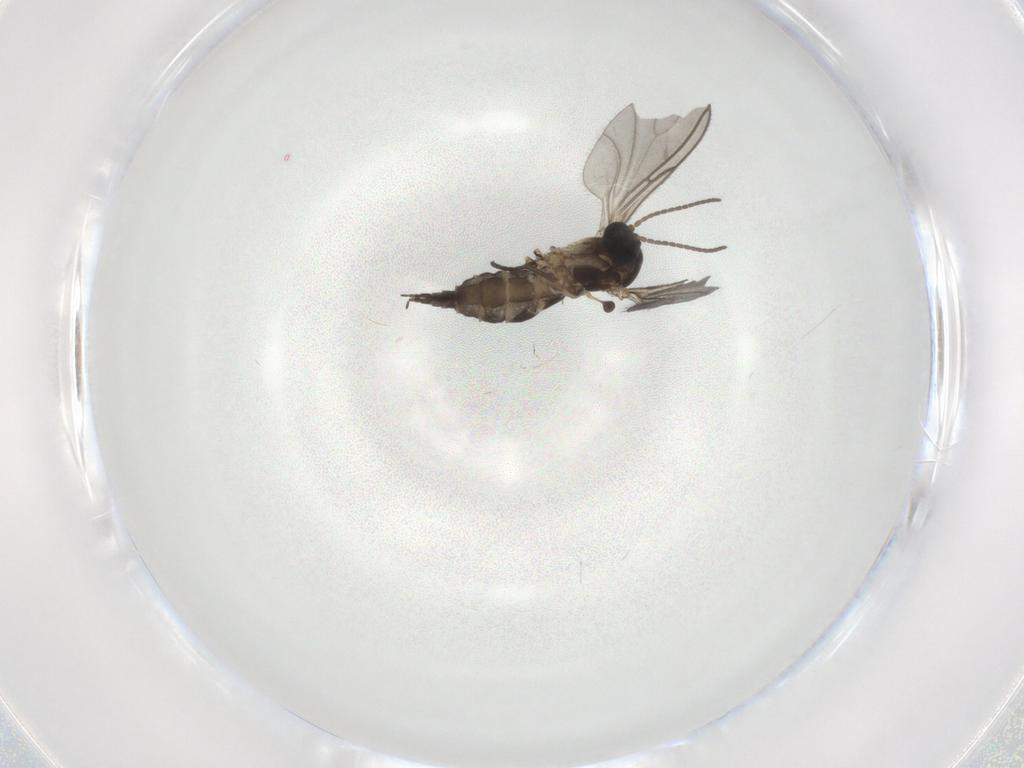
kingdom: Animalia
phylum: Arthropoda
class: Insecta
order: Diptera
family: Sciaridae
